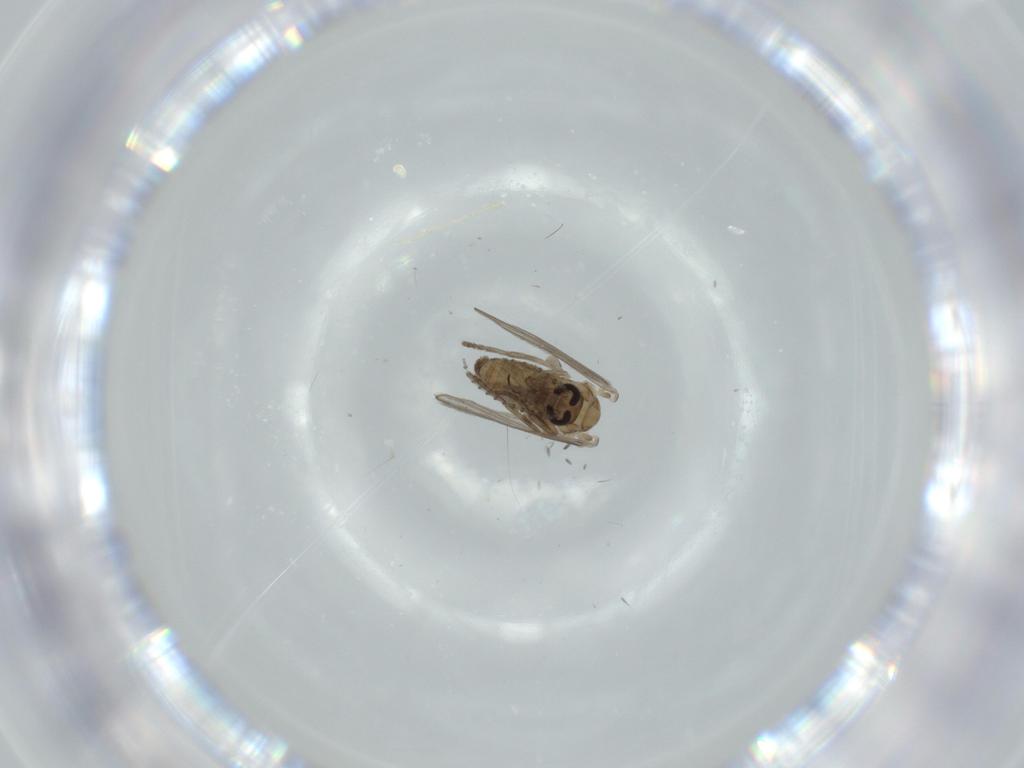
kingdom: Animalia
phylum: Arthropoda
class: Insecta
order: Diptera
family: Psychodidae
